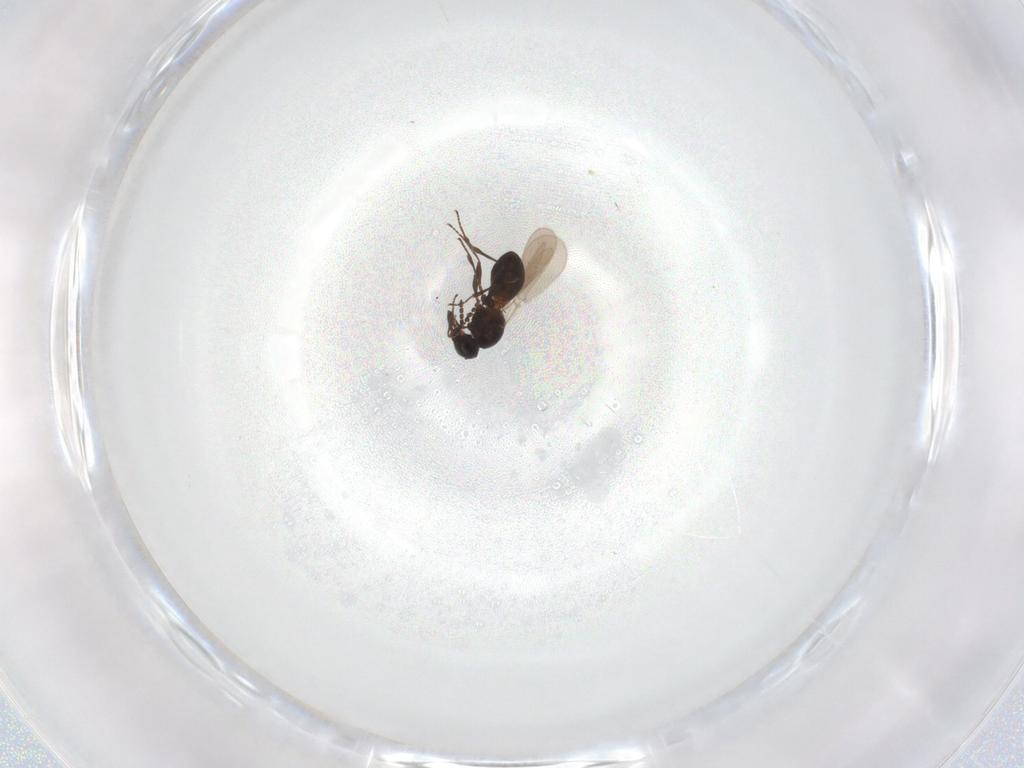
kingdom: Animalia
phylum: Arthropoda
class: Insecta
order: Hymenoptera
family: Platygastridae
